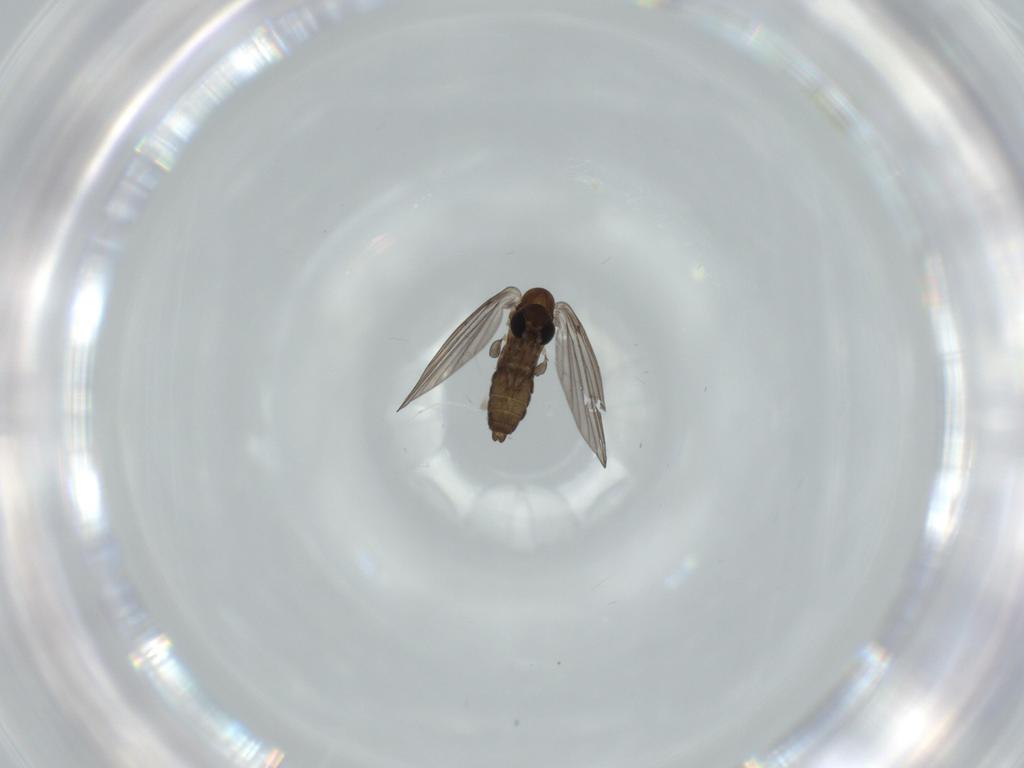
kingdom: Animalia
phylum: Arthropoda
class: Insecta
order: Diptera
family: Psychodidae
